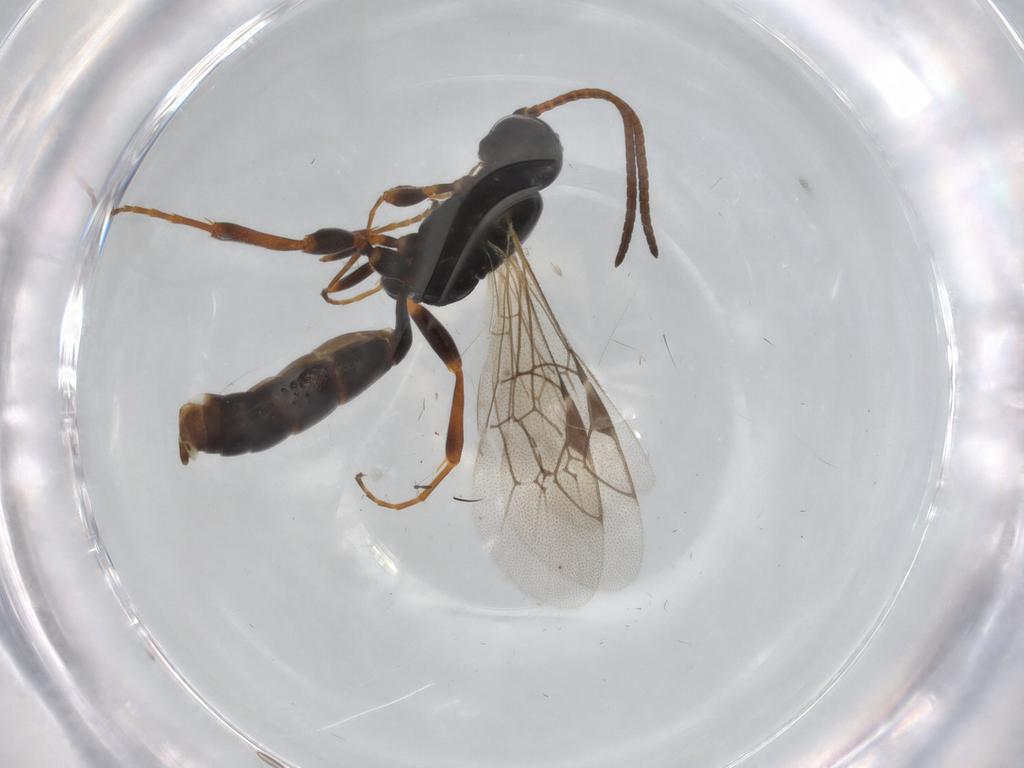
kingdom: Animalia
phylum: Arthropoda
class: Insecta
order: Hymenoptera
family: Ichneumonidae
